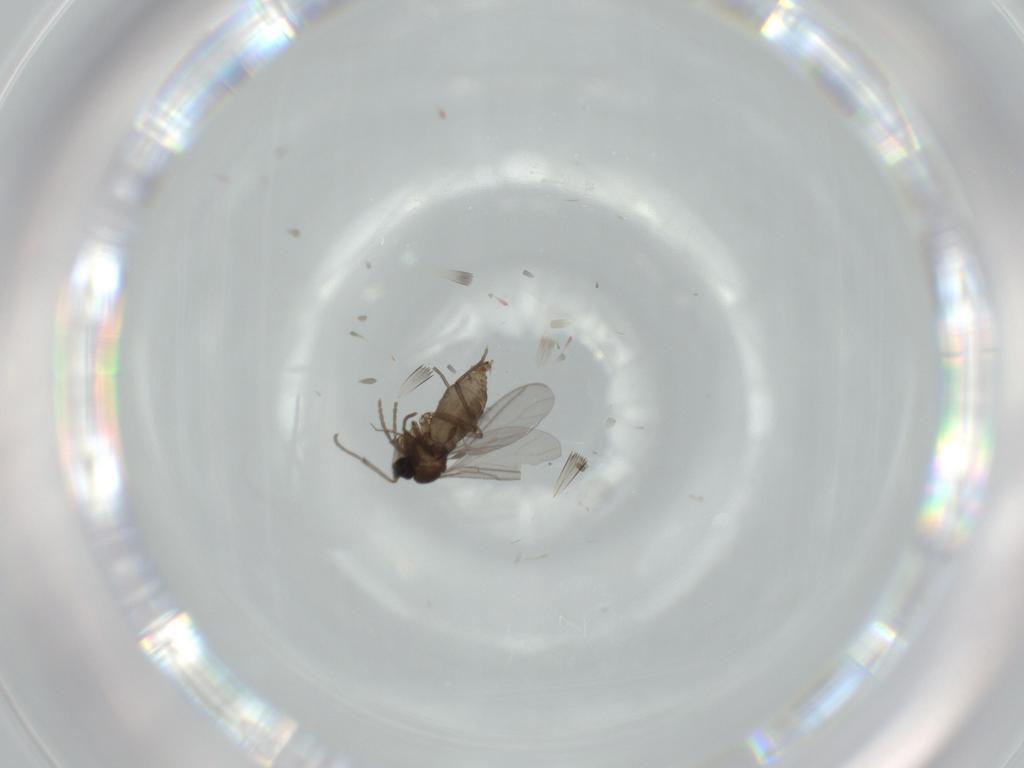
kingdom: Animalia
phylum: Arthropoda
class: Insecta
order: Diptera
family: Sciaridae
